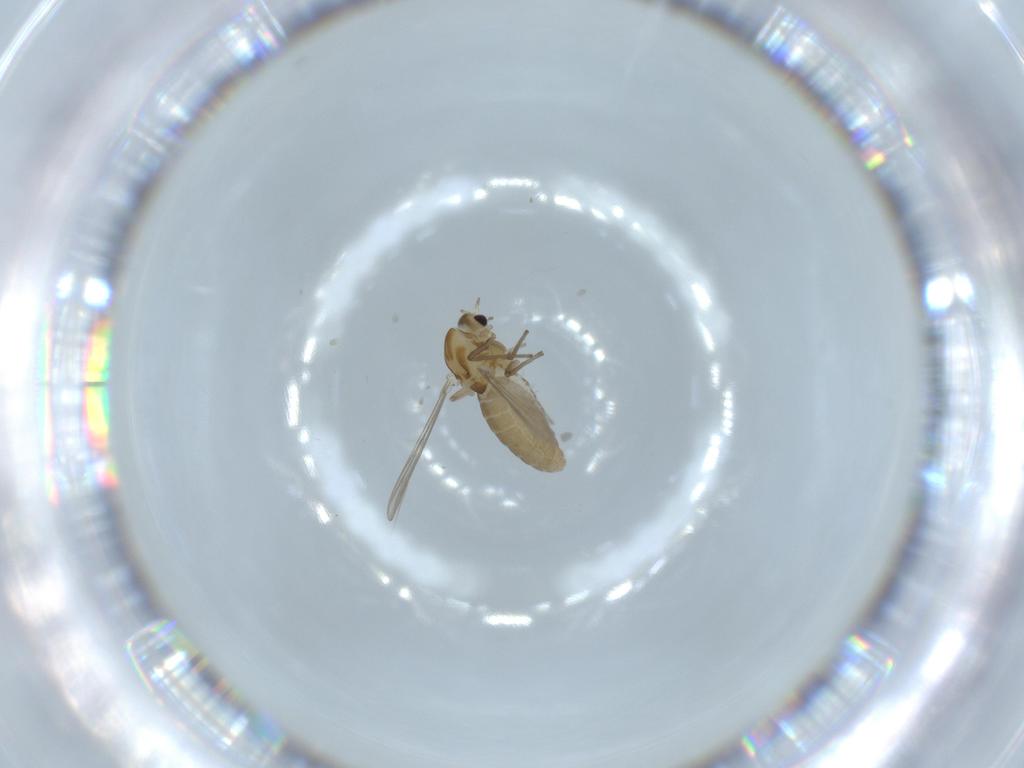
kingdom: Animalia
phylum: Arthropoda
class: Insecta
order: Diptera
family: Chironomidae
